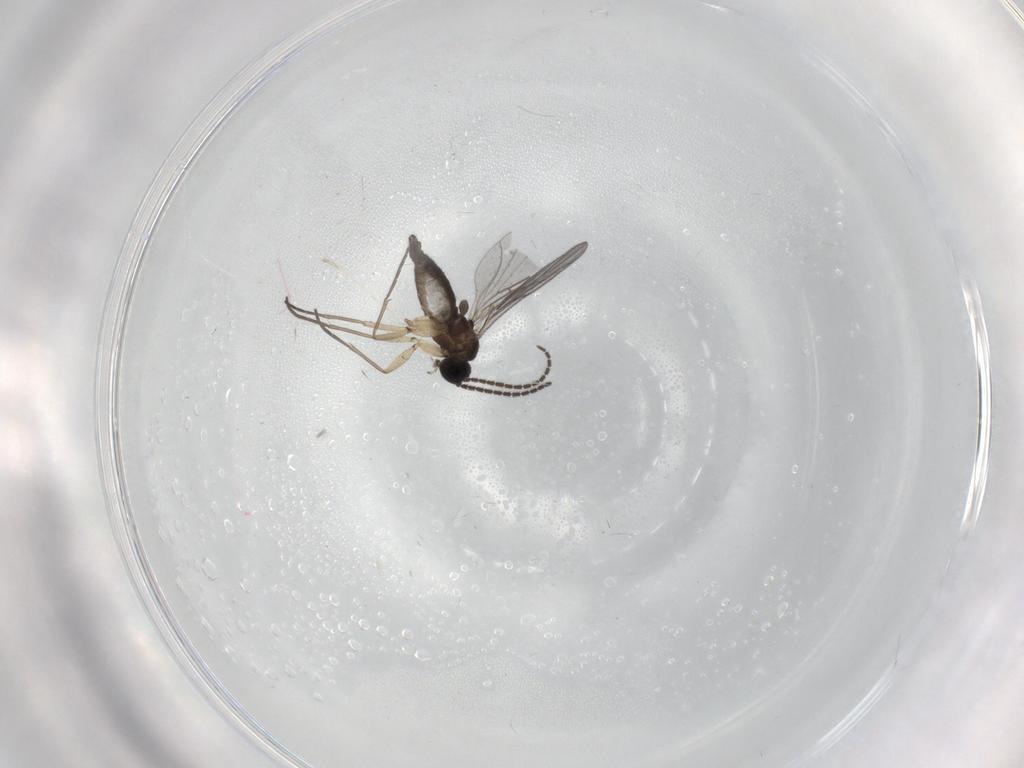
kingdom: Animalia
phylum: Arthropoda
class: Insecta
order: Diptera
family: Sciaridae
